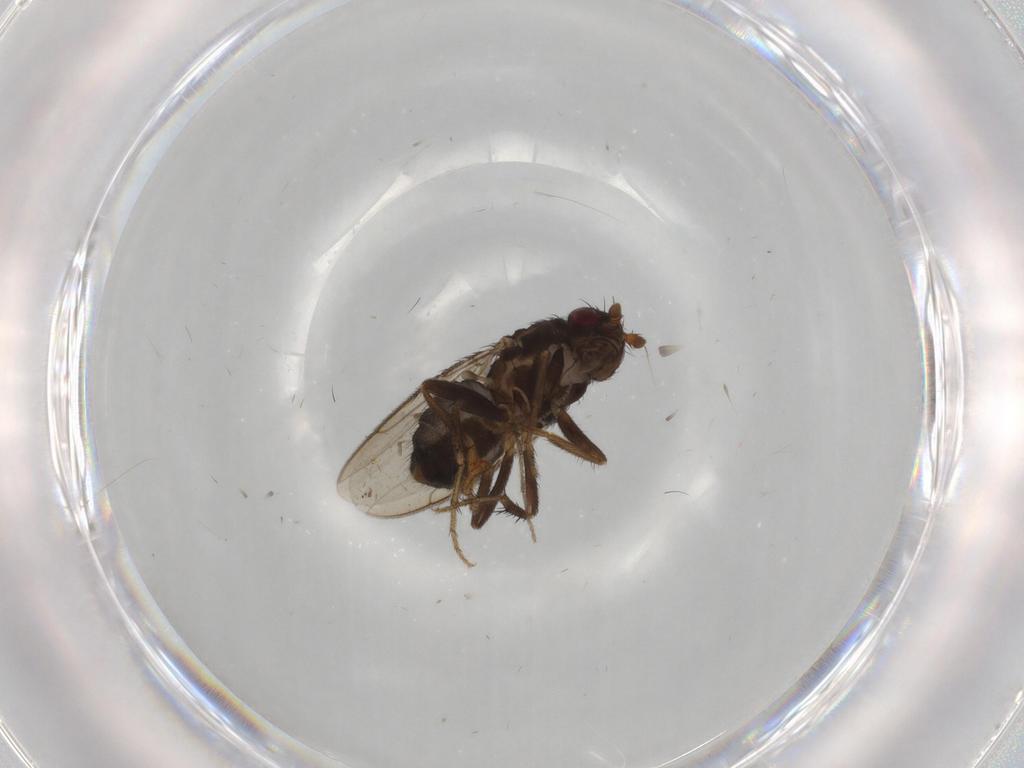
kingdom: Animalia
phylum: Arthropoda
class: Insecta
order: Diptera
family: Sphaeroceridae
